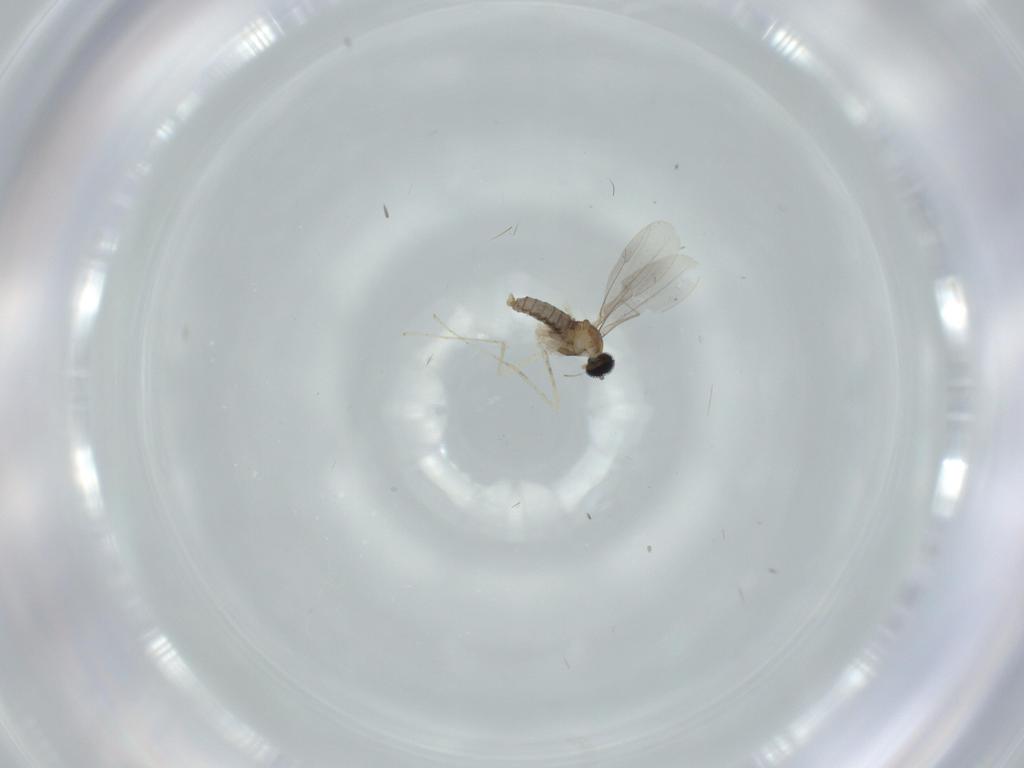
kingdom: Animalia
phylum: Arthropoda
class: Insecta
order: Diptera
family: Cecidomyiidae
